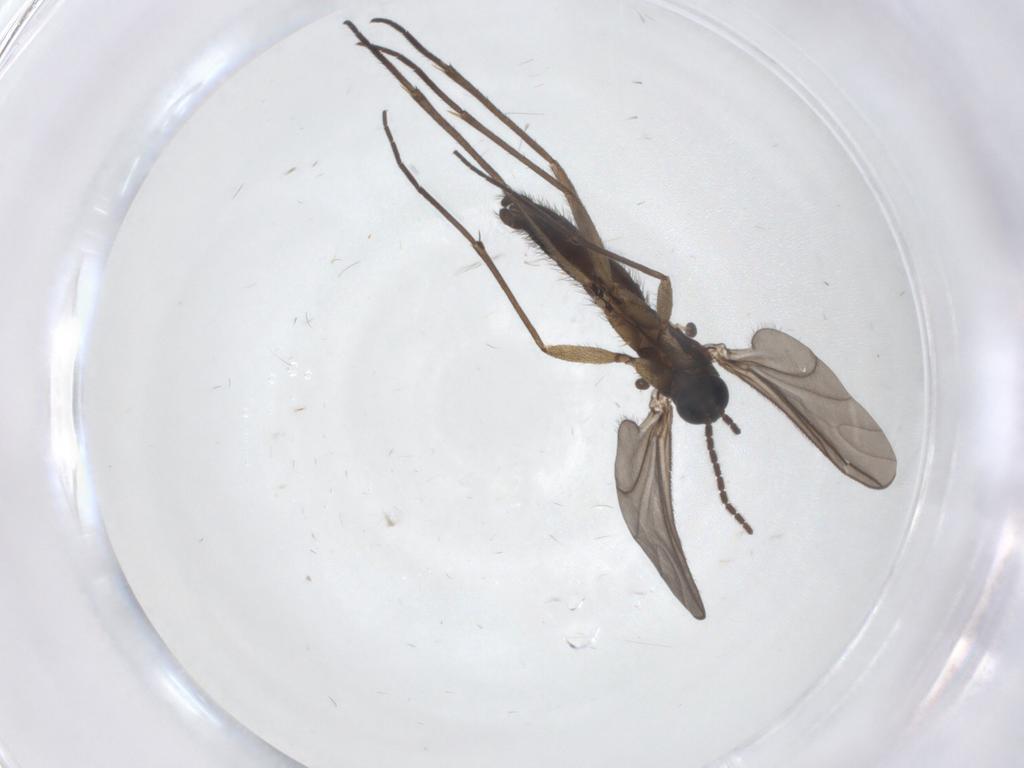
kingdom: Animalia
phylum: Arthropoda
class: Insecta
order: Diptera
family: Sciaridae
